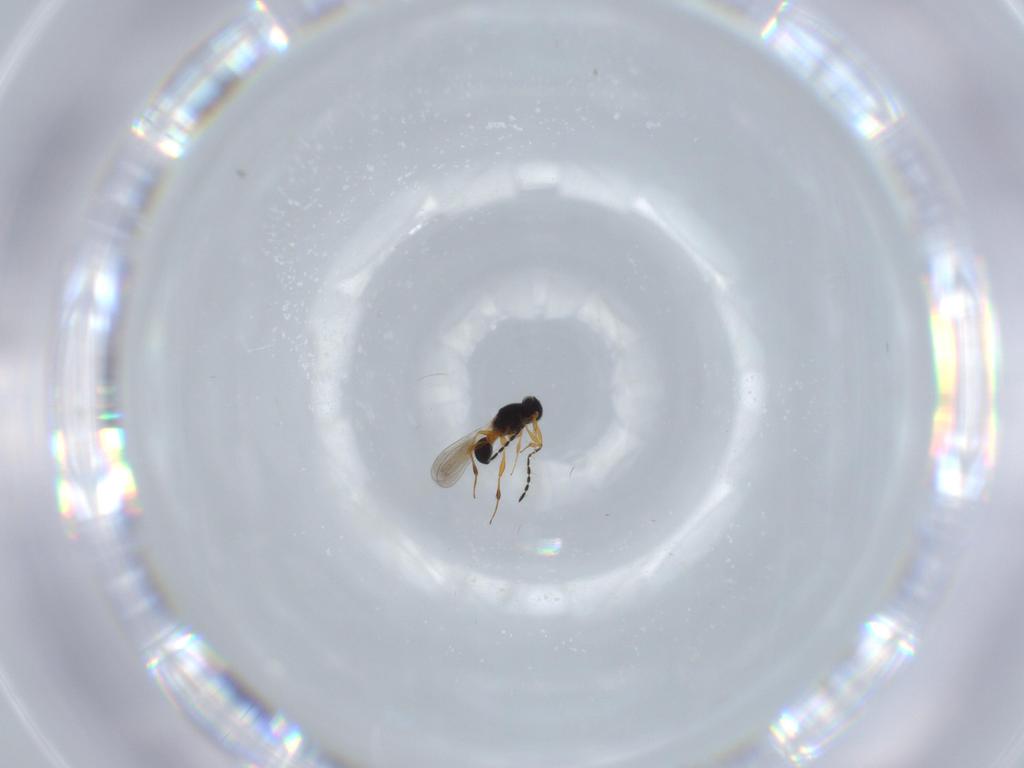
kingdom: Animalia
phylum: Arthropoda
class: Insecta
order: Hymenoptera
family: Platygastridae
